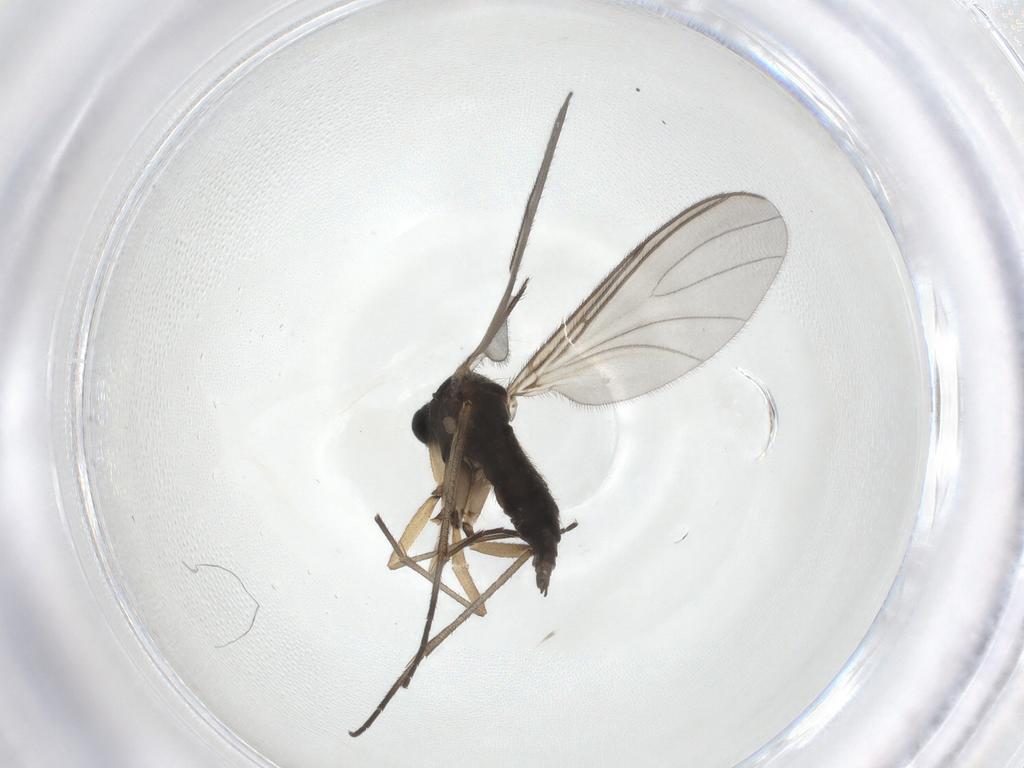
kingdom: Animalia
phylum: Arthropoda
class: Insecta
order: Diptera
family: Sciaridae
